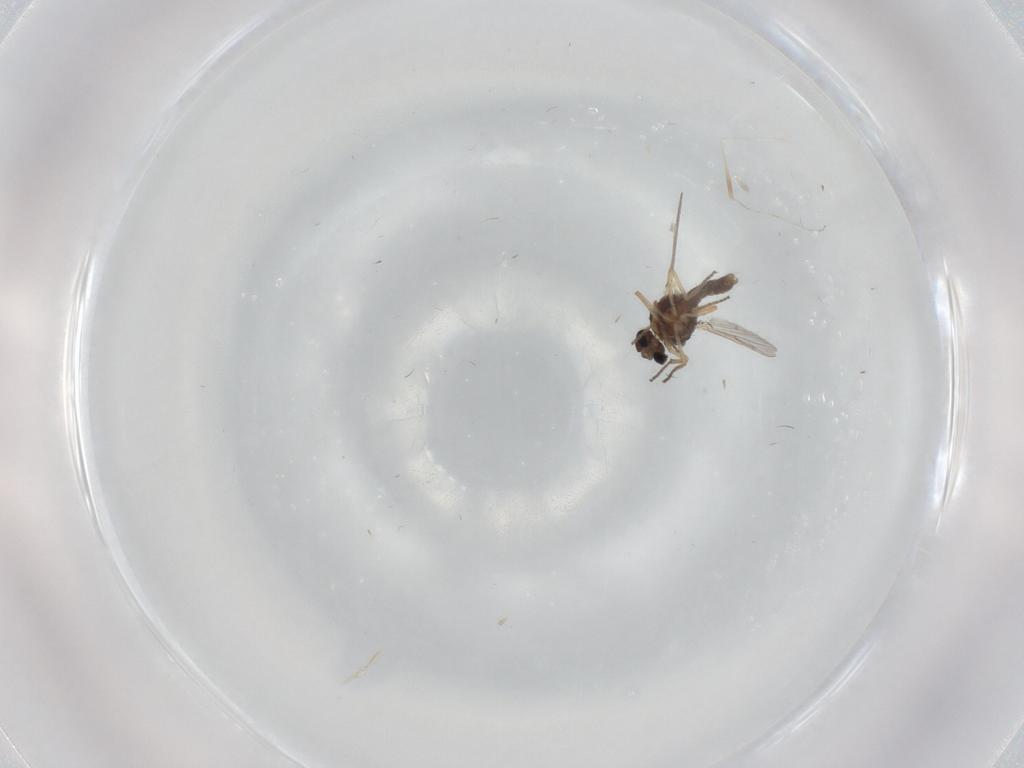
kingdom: Animalia
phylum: Arthropoda
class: Insecta
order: Diptera
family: Ceratopogonidae
